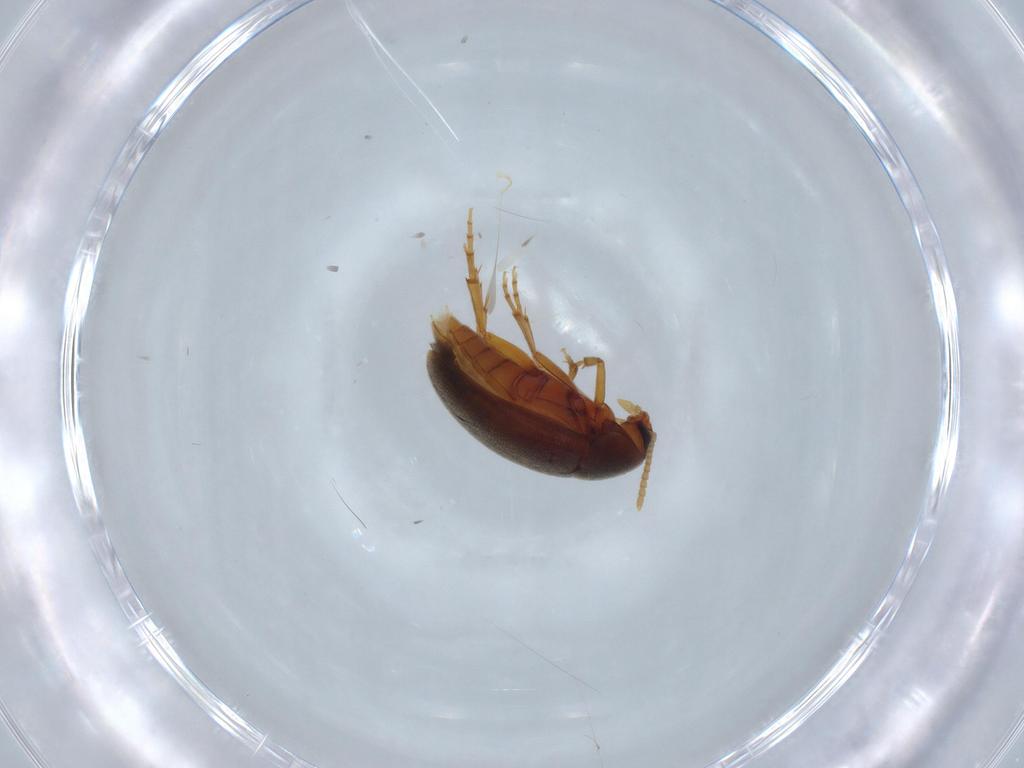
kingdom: Animalia
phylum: Arthropoda
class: Insecta
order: Coleoptera
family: Scraptiidae
